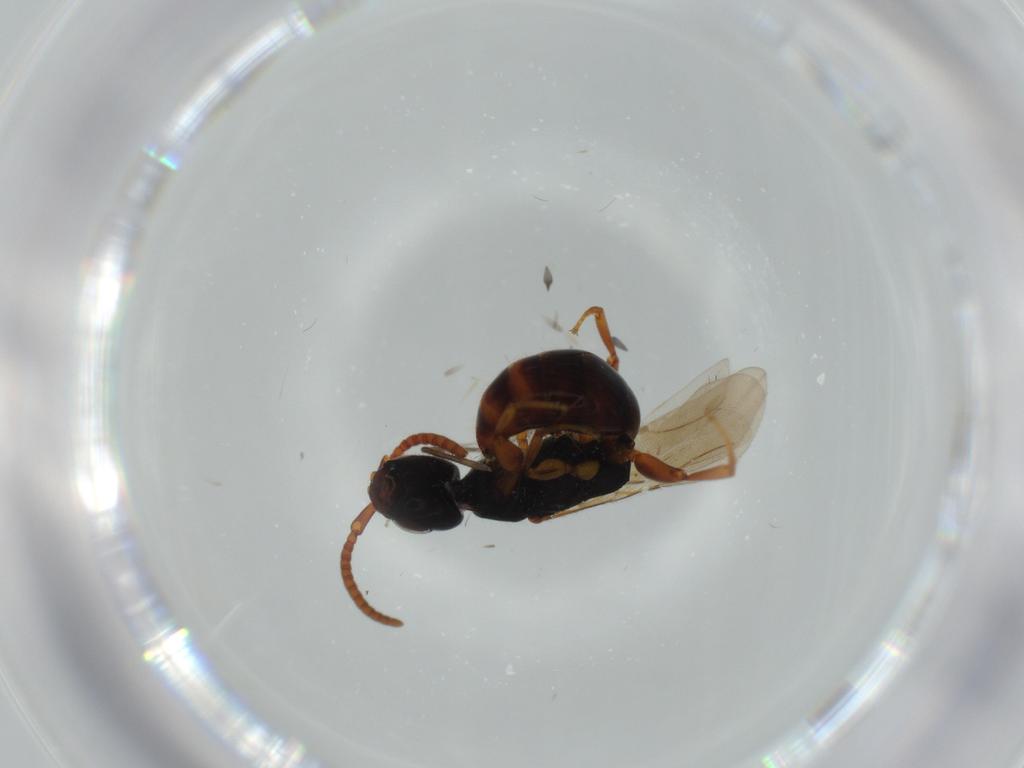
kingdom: Animalia
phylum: Arthropoda
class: Insecta
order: Hymenoptera
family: Figitidae
